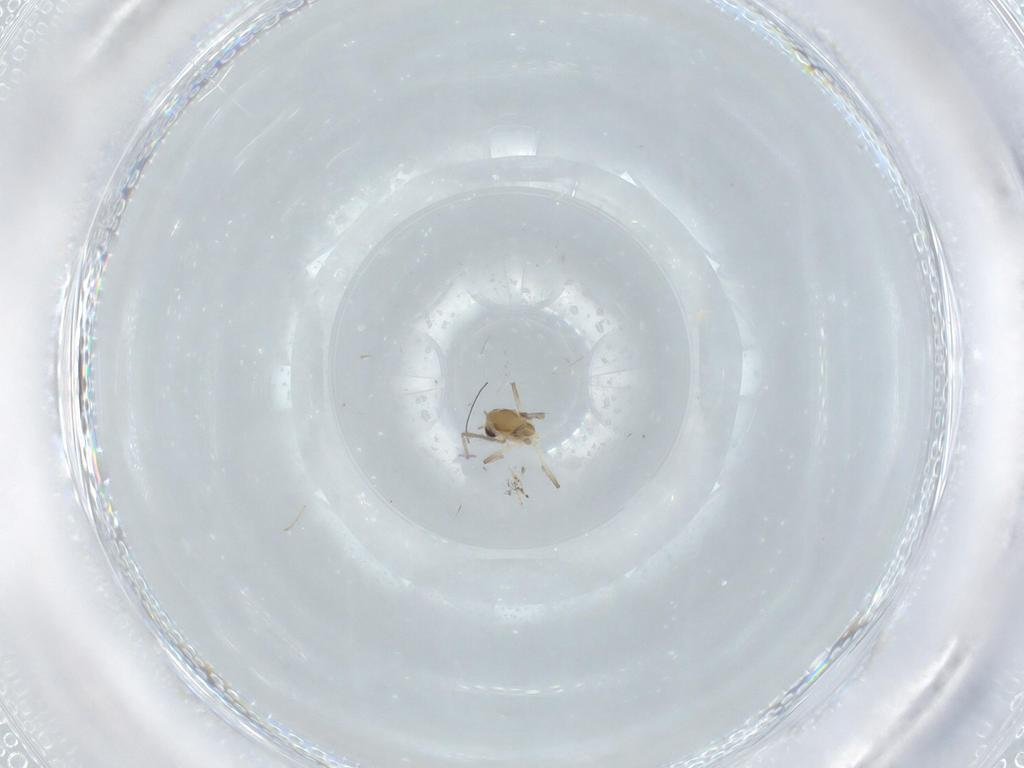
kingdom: Animalia
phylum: Arthropoda
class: Insecta
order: Diptera
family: Chironomidae
